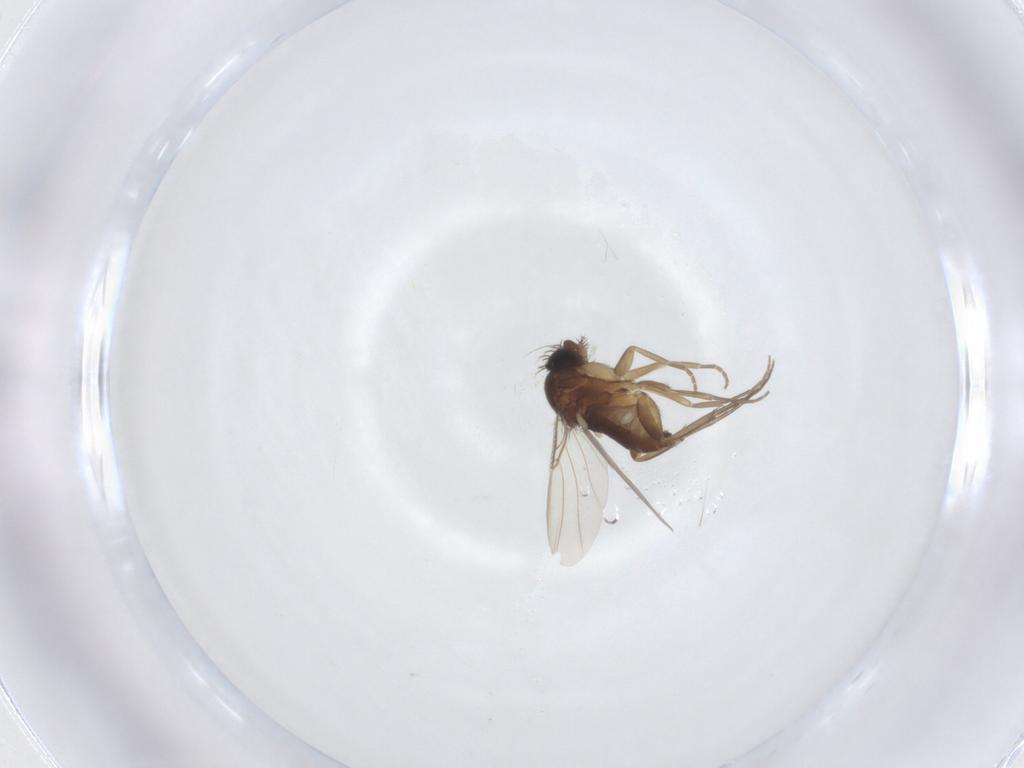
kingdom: Animalia
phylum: Arthropoda
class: Insecta
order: Diptera
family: Phoridae
